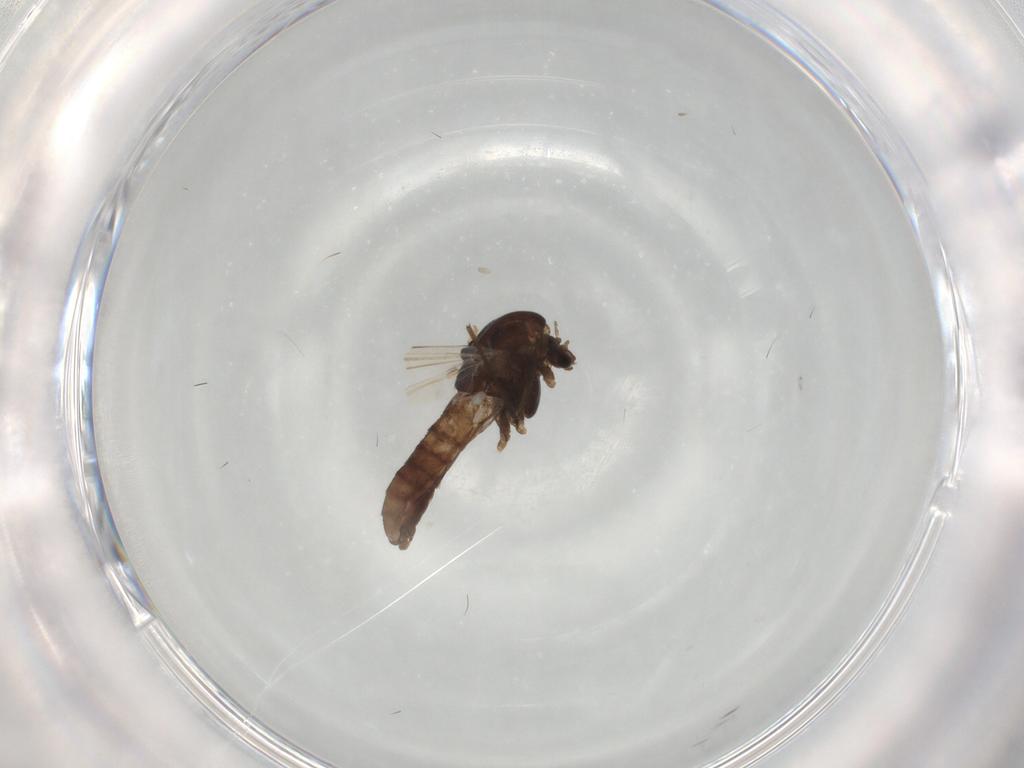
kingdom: Animalia
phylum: Arthropoda
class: Insecta
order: Diptera
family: Chironomidae
